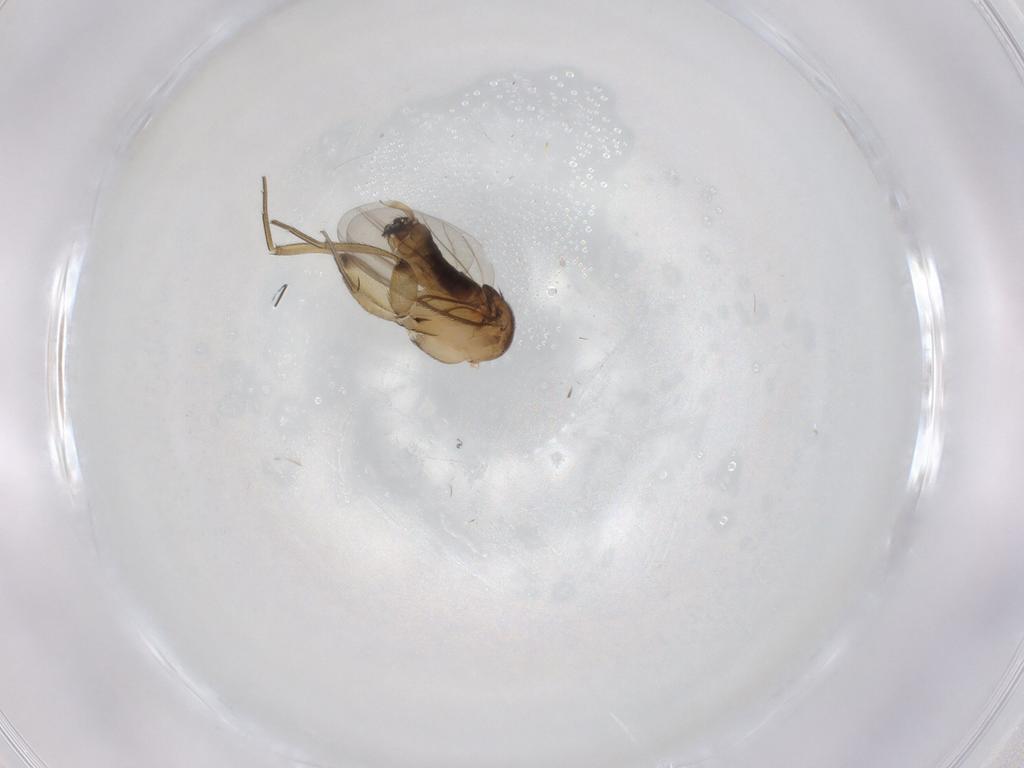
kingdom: Animalia
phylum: Arthropoda
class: Insecta
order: Diptera
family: Phoridae
